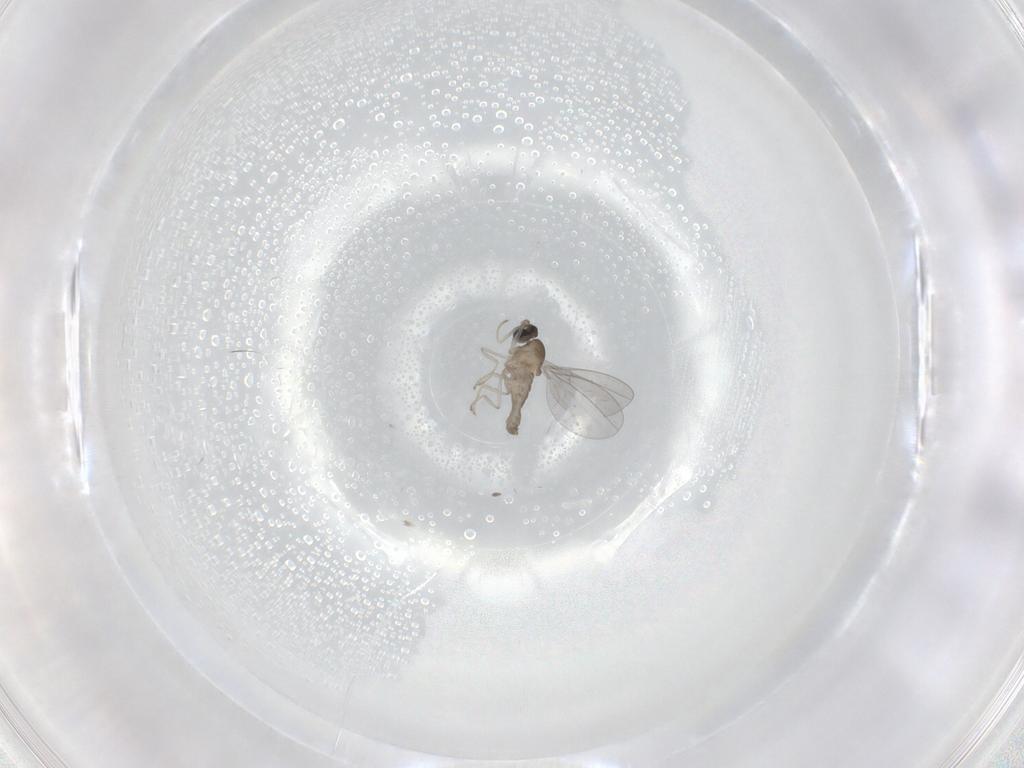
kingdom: Animalia
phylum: Arthropoda
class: Insecta
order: Diptera
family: Cecidomyiidae
